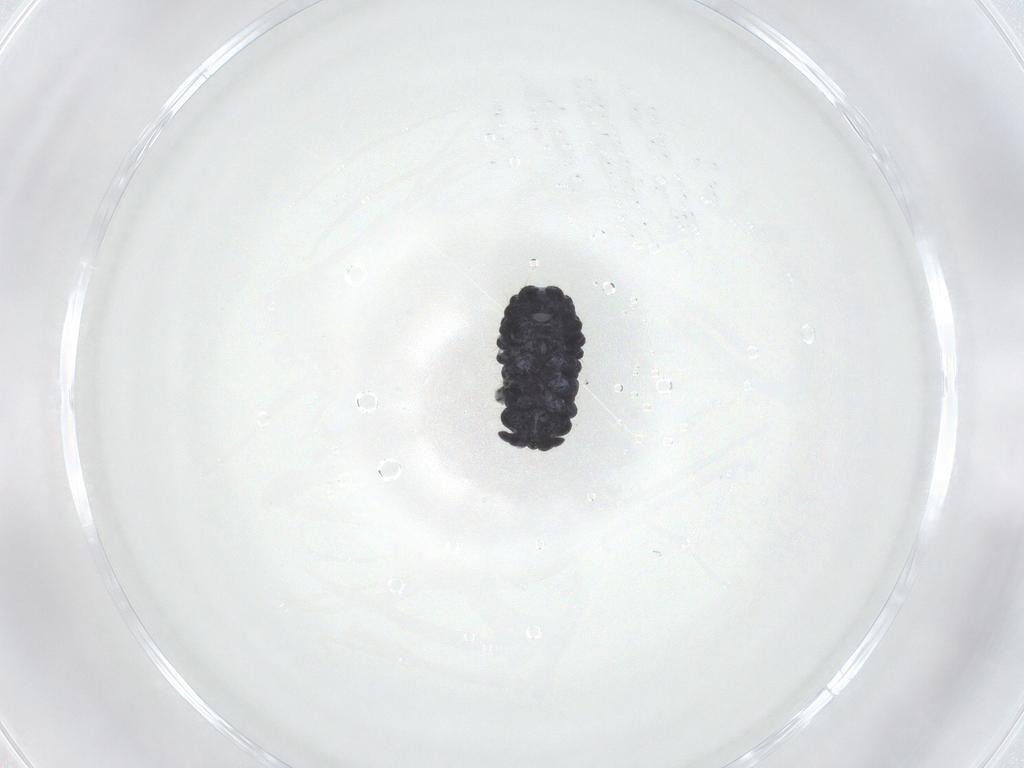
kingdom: Animalia
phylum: Arthropoda
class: Collembola
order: Poduromorpha
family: Neanuridae
